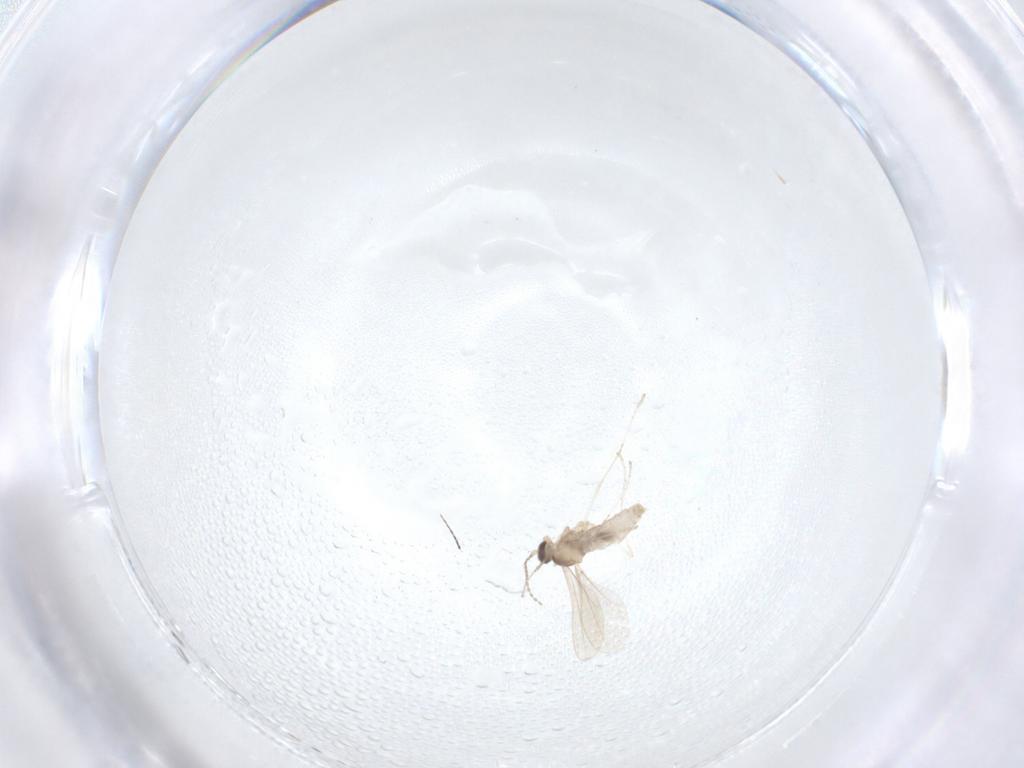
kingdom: Animalia
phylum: Arthropoda
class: Insecta
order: Diptera
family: Cecidomyiidae
